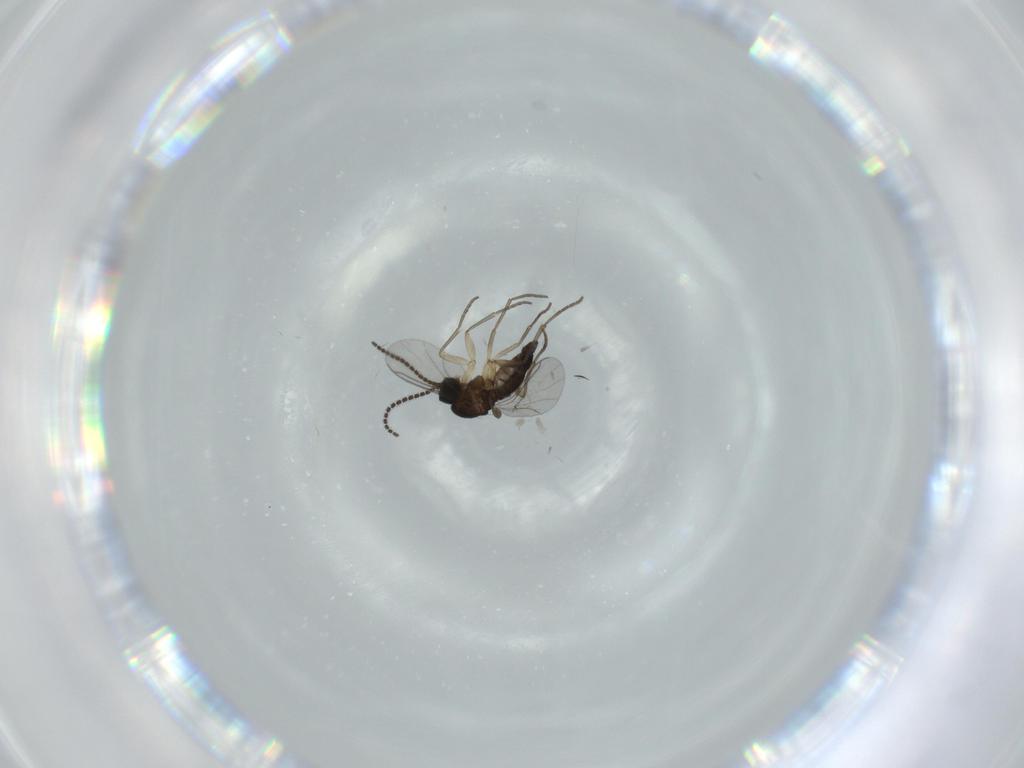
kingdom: Animalia
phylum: Arthropoda
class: Insecta
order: Diptera
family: Sciaridae
